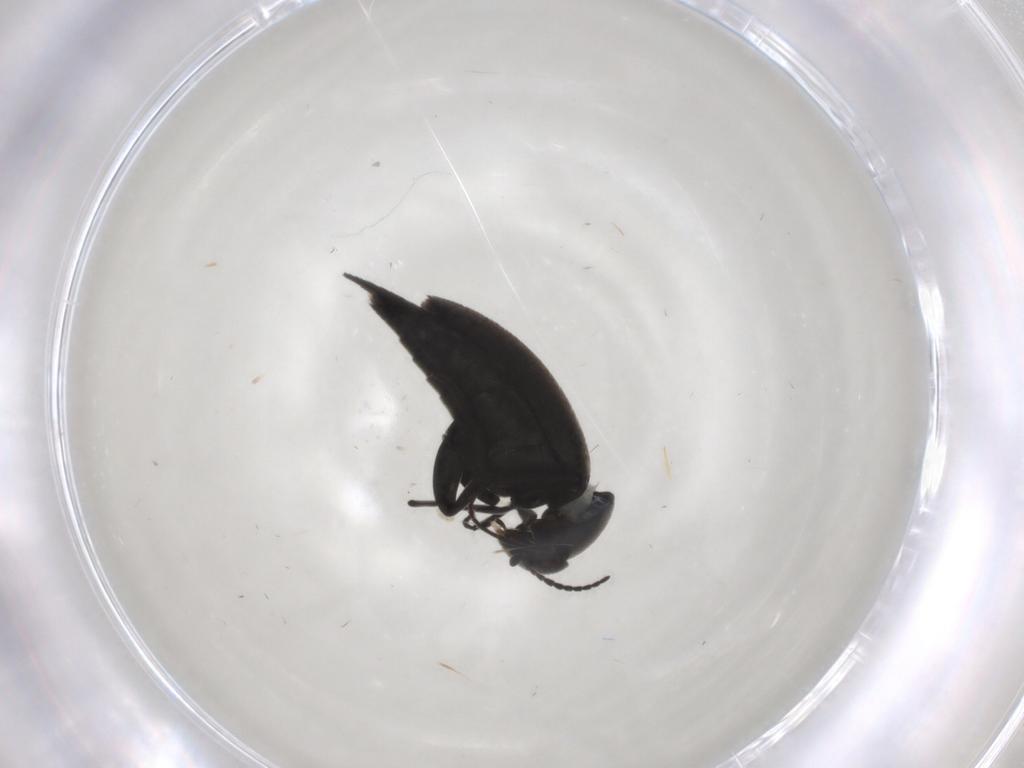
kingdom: Animalia
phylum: Arthropoda
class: Insecta
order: Coleoptera
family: Mordellidae
